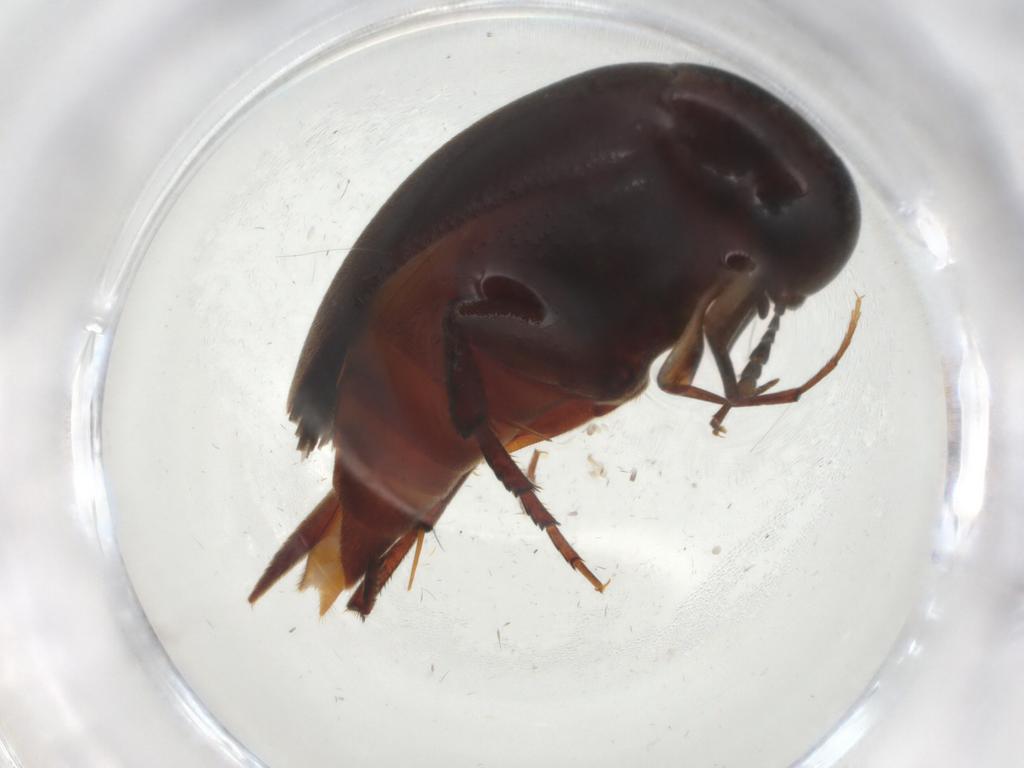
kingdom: Animalia
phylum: Arthropoda
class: Insecta
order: Coleoptera
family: Mordellidae
